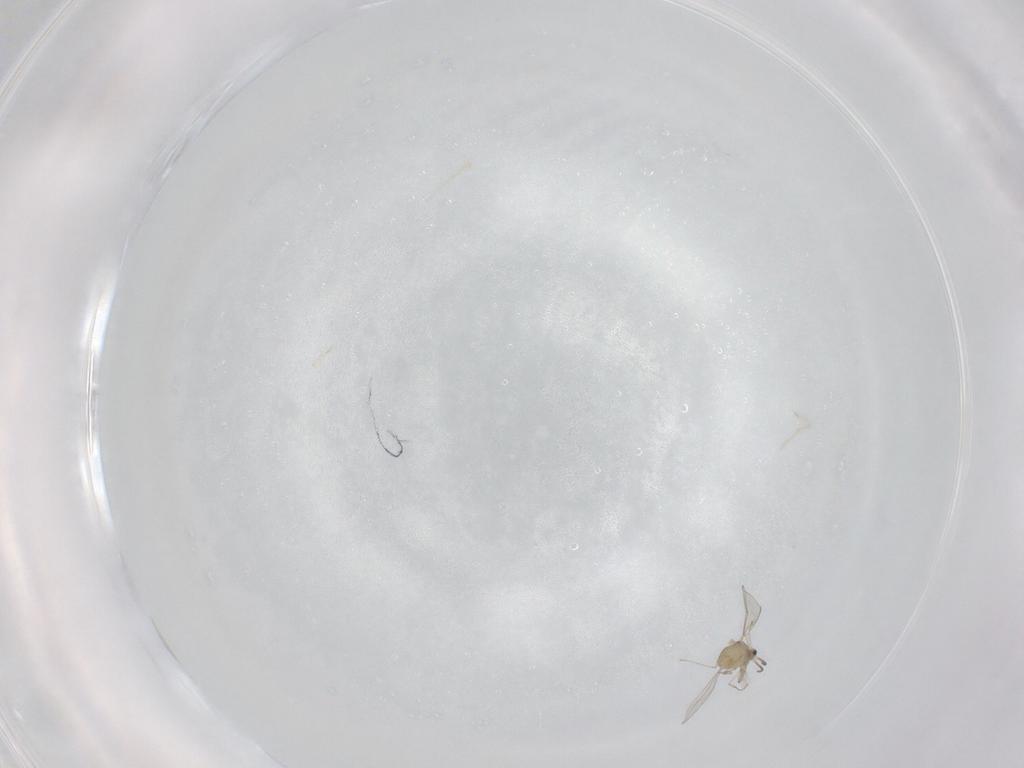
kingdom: Animalia
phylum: Arthropoda
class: Insecta
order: Diptera
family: Cecidomyiidae
